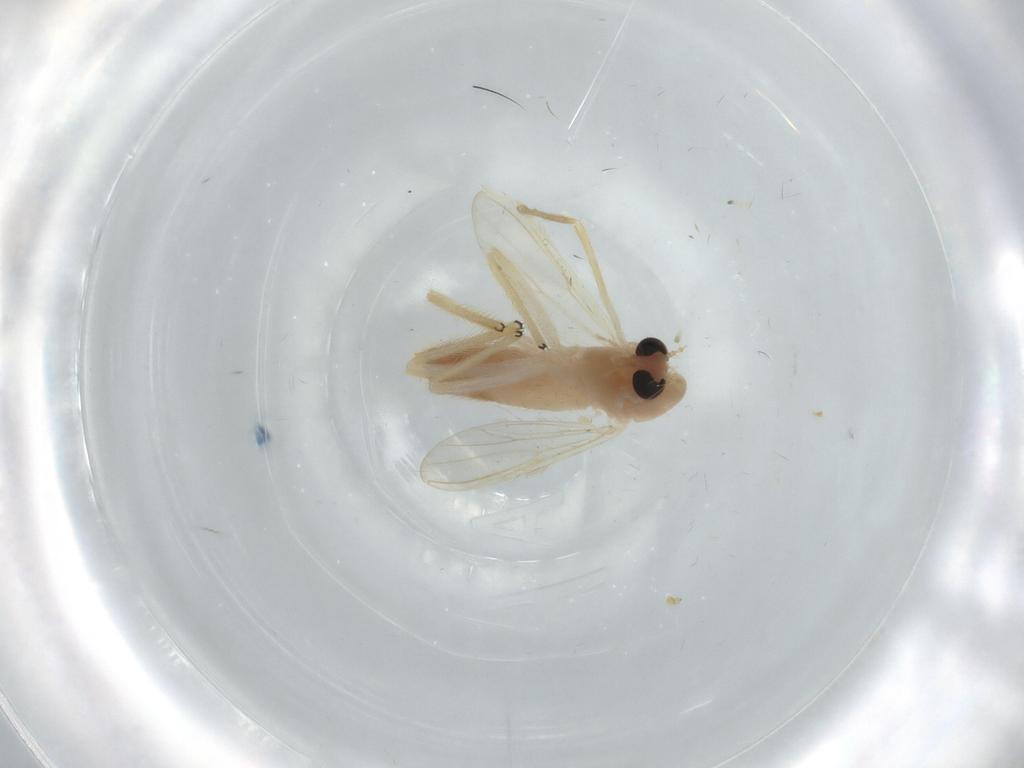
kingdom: Animalia
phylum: Arthropoda
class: Insecta
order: Diptera
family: Chironomidae
